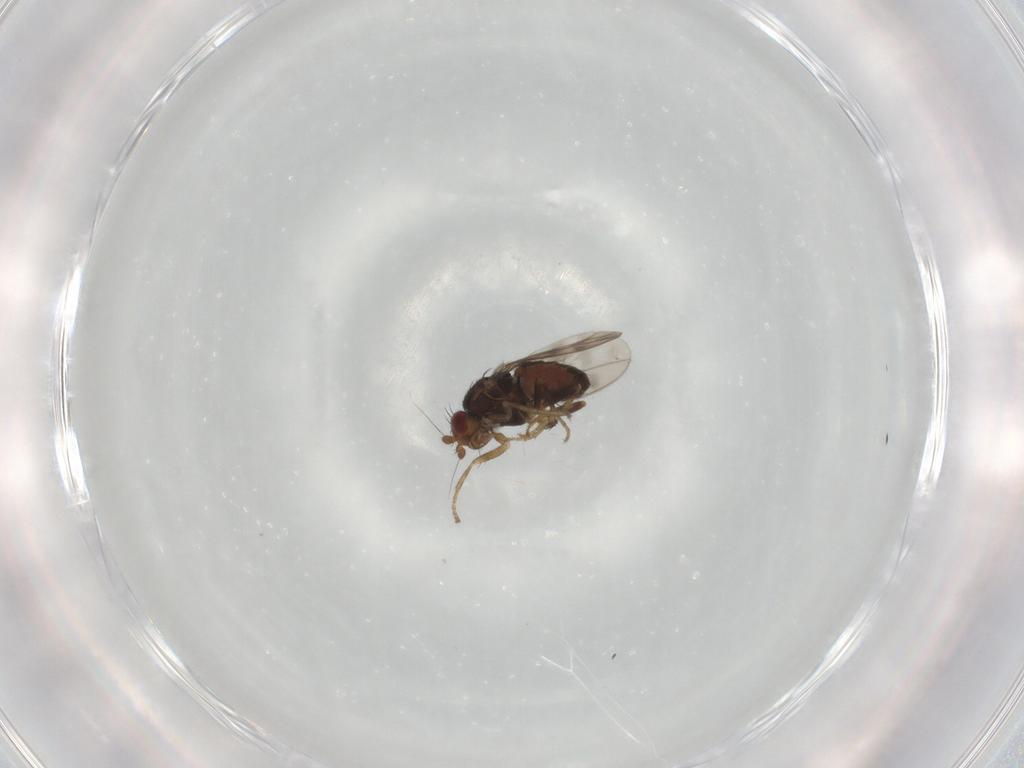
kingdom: Animalia
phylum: Arthropoda
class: Insecta
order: Diptera
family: Sphaeroceridae
